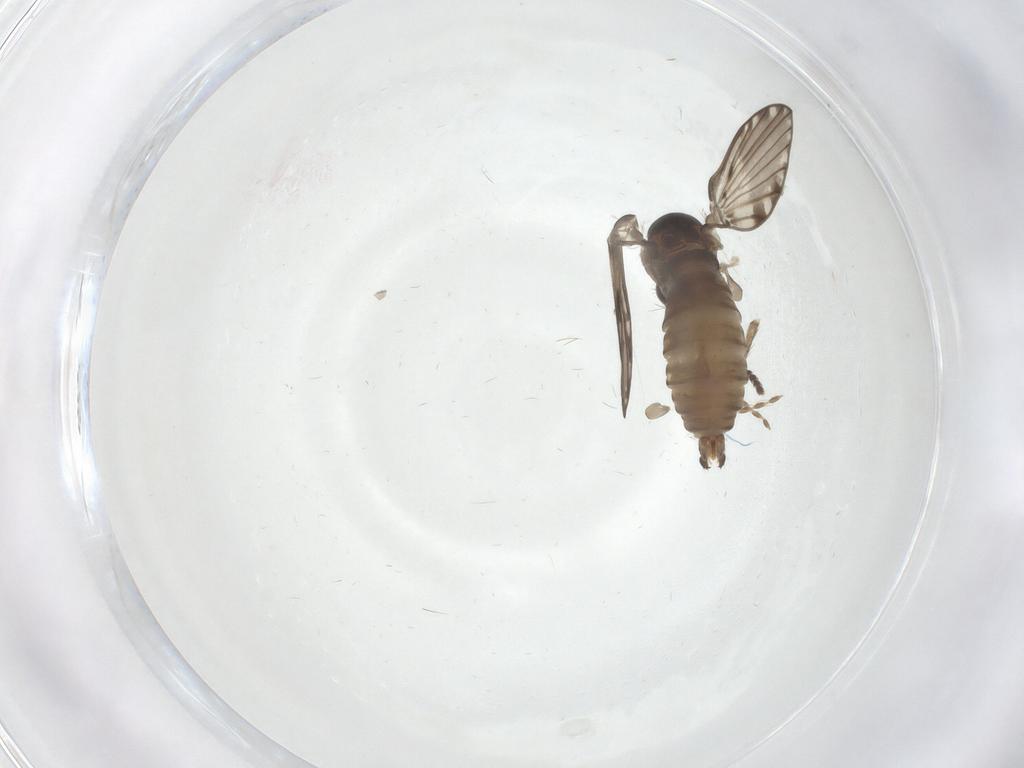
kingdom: Animalia
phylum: Arthropoda
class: Insecta
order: Diptera
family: Psychodidae
